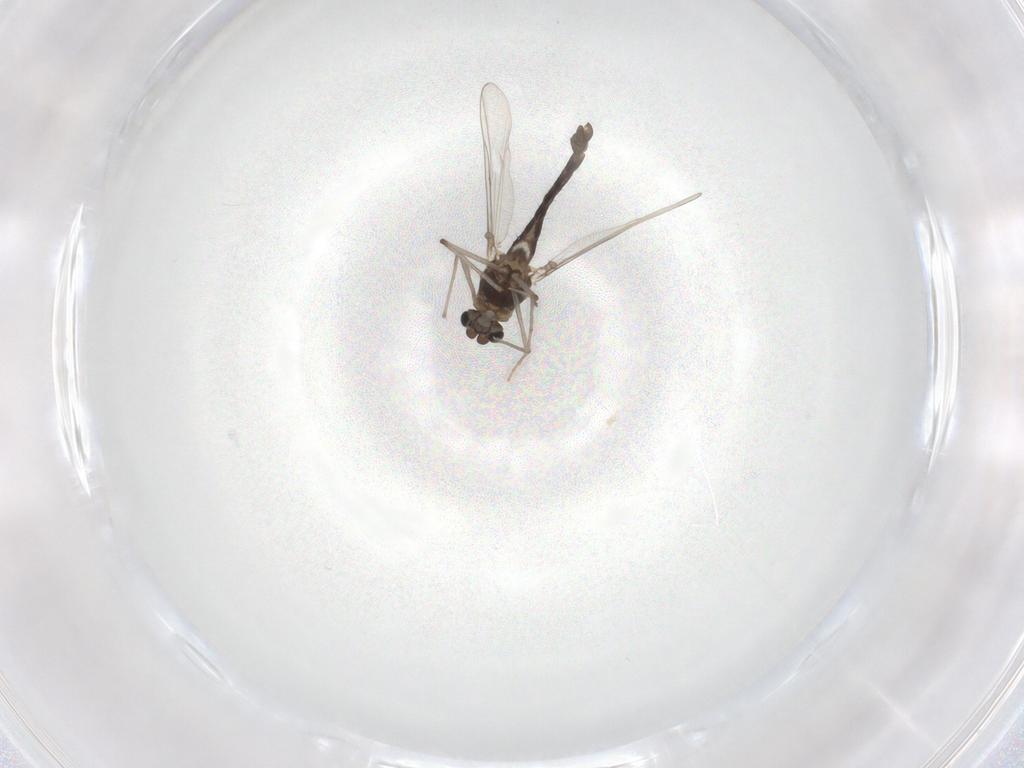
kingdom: Animalia
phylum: Arthropoda
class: Insecta
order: Diptera
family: Chironomidae
